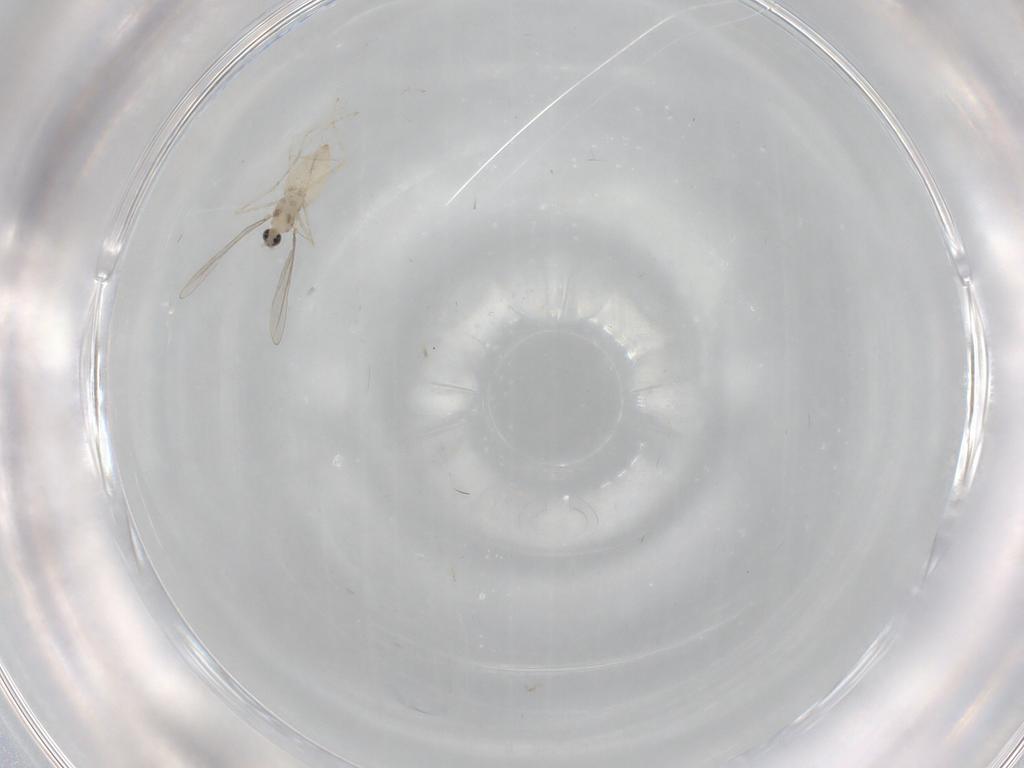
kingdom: Animalia
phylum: Arthropoda
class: Insecta
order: Diptera
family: Cecidomyiidae
